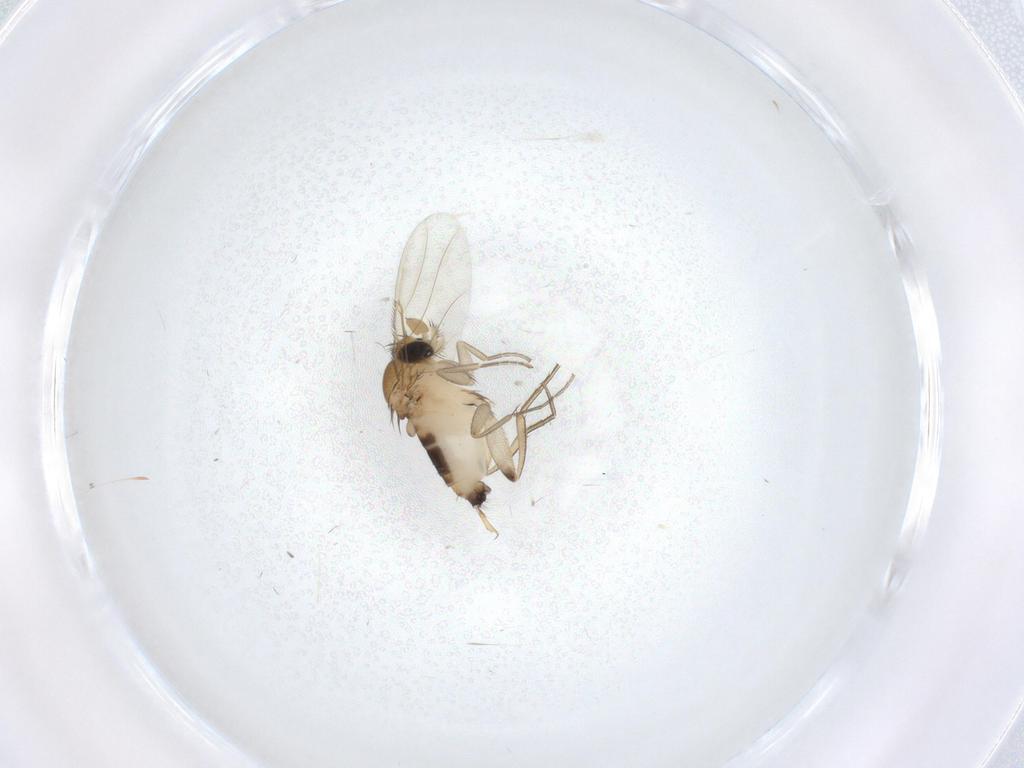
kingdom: Animalia
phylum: Arthropoda
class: Insecta
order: Diptera
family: Phoridae
